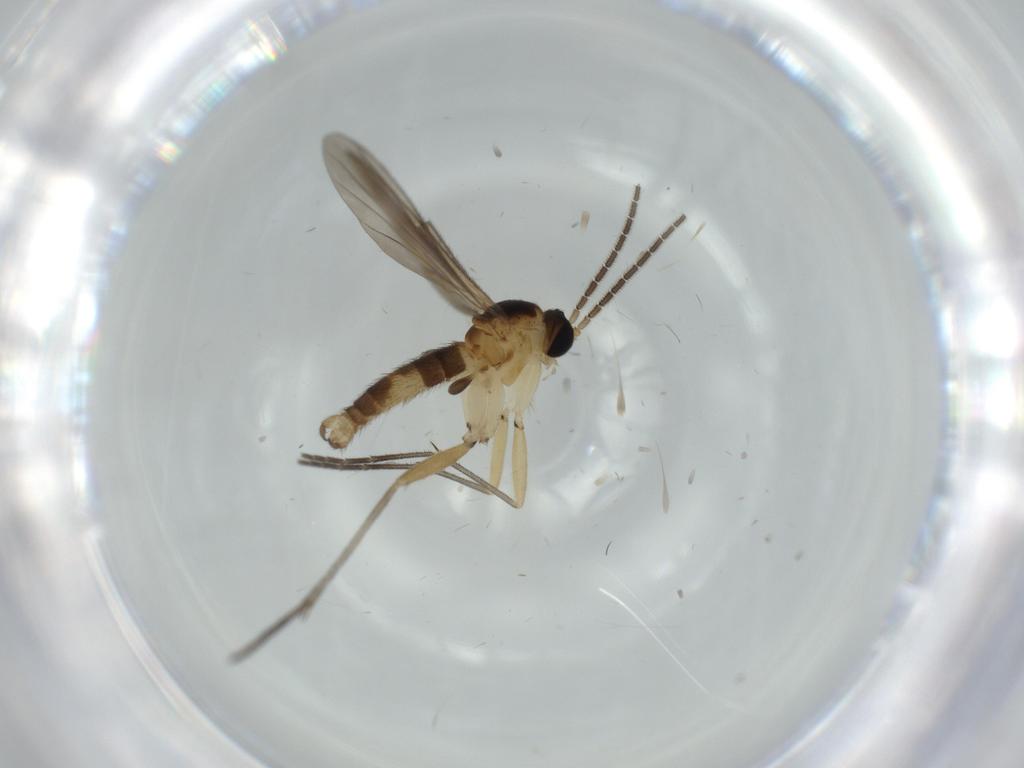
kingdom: Animalia
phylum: Arthropoda
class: Insecta
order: Diptera
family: Sciaridae
